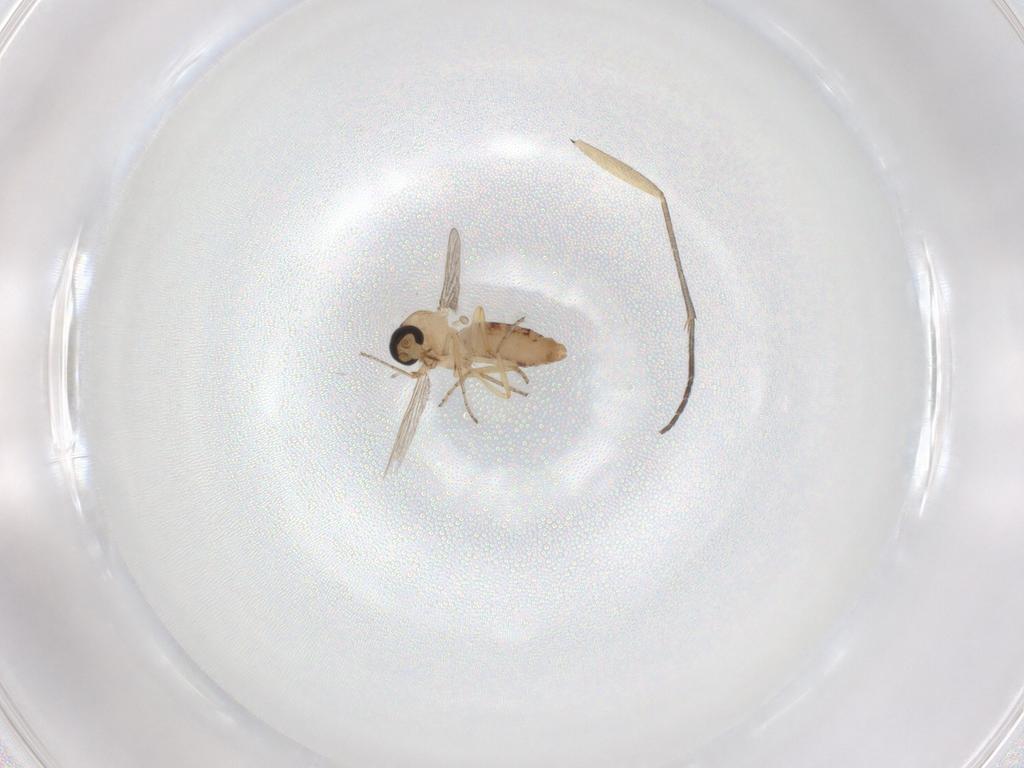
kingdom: Animalia
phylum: Arthropoda
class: Insecta
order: Diptera
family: Ceratopogonidae
